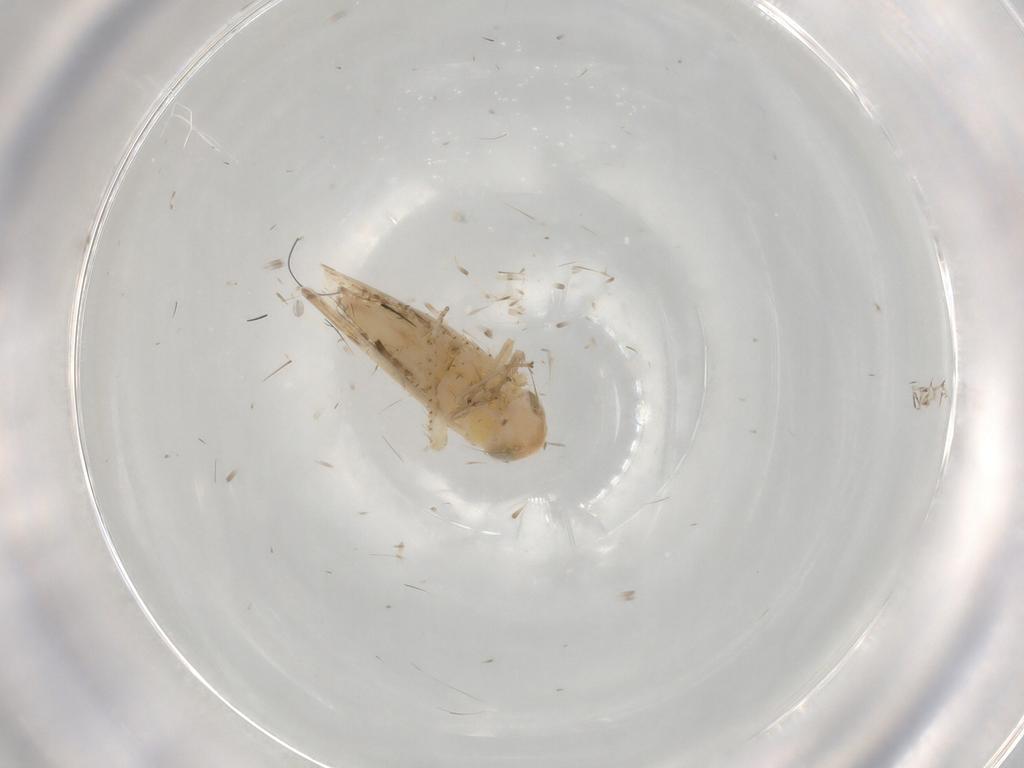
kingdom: Animalia
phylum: Arthropoda
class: Insecta
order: Hemiptera
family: Cicadellidae
